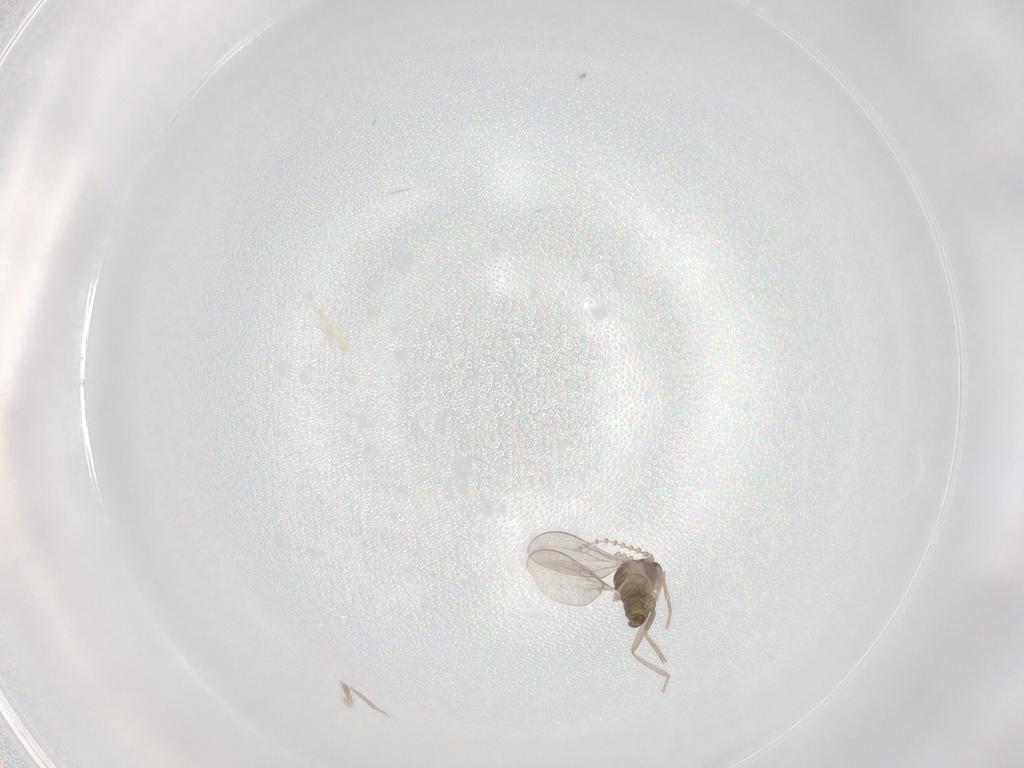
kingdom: Animalia
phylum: Arthropoda
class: Insecta
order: Diptera
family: Cecidomyiidae
